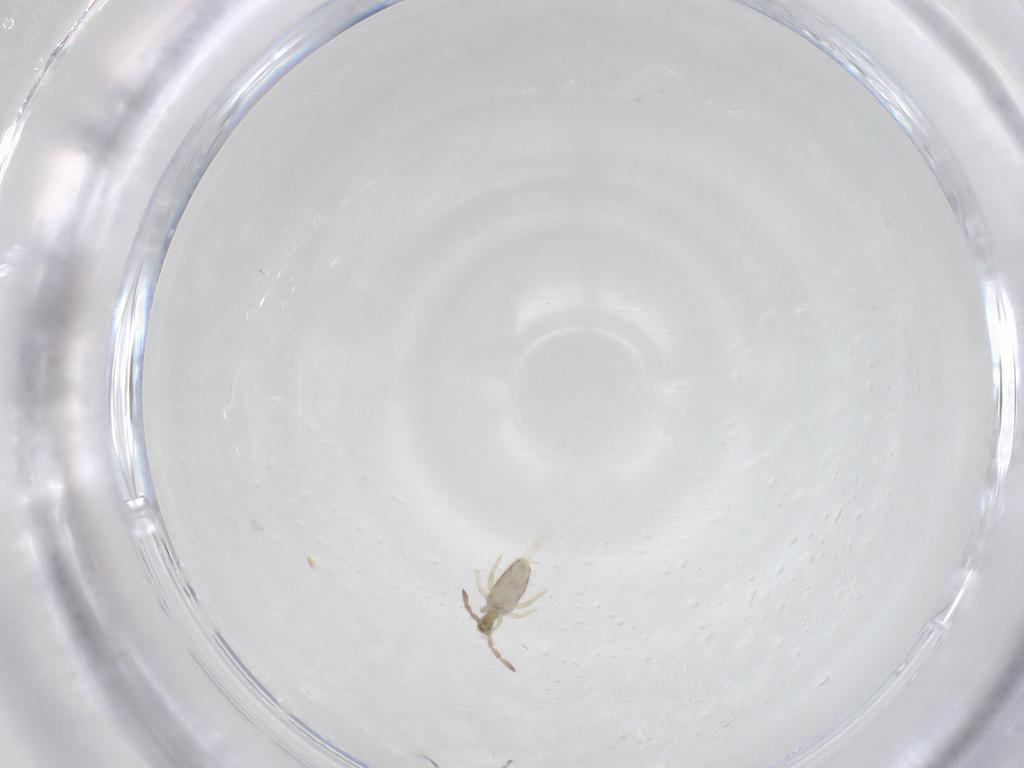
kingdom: Animalia
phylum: Arthropoda
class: Collembola
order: Entomobryomorpha
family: Entomobryidae
